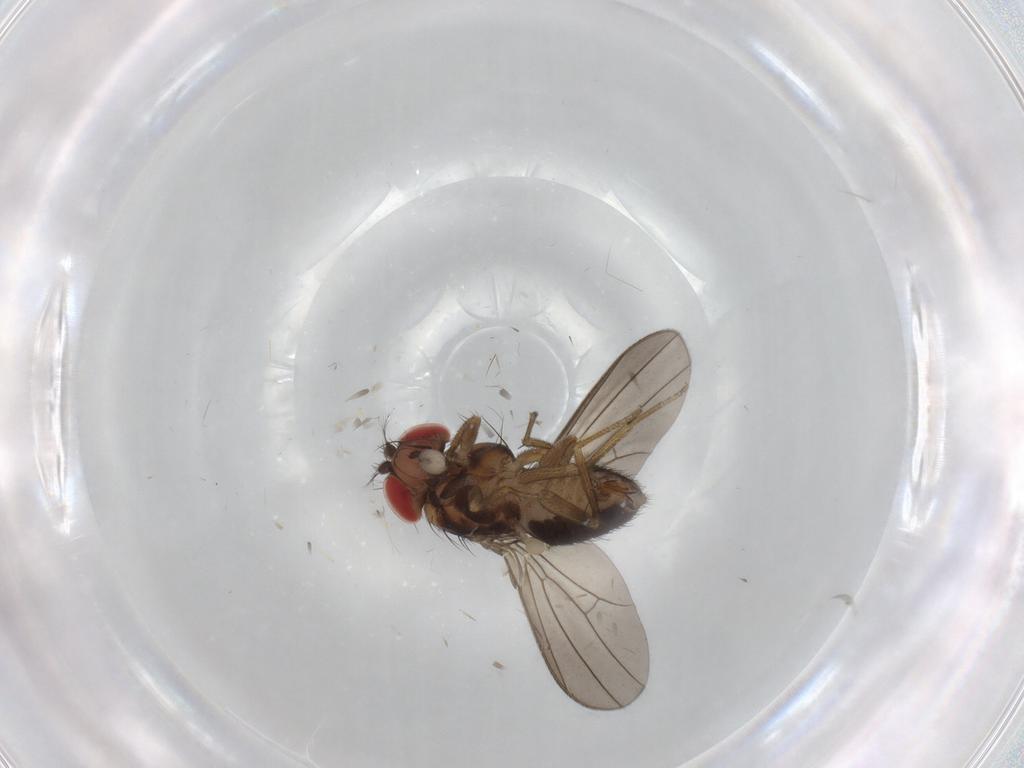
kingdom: Animalia
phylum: Arthropoda
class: Insecta
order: Diptera
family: Drosophilidae
